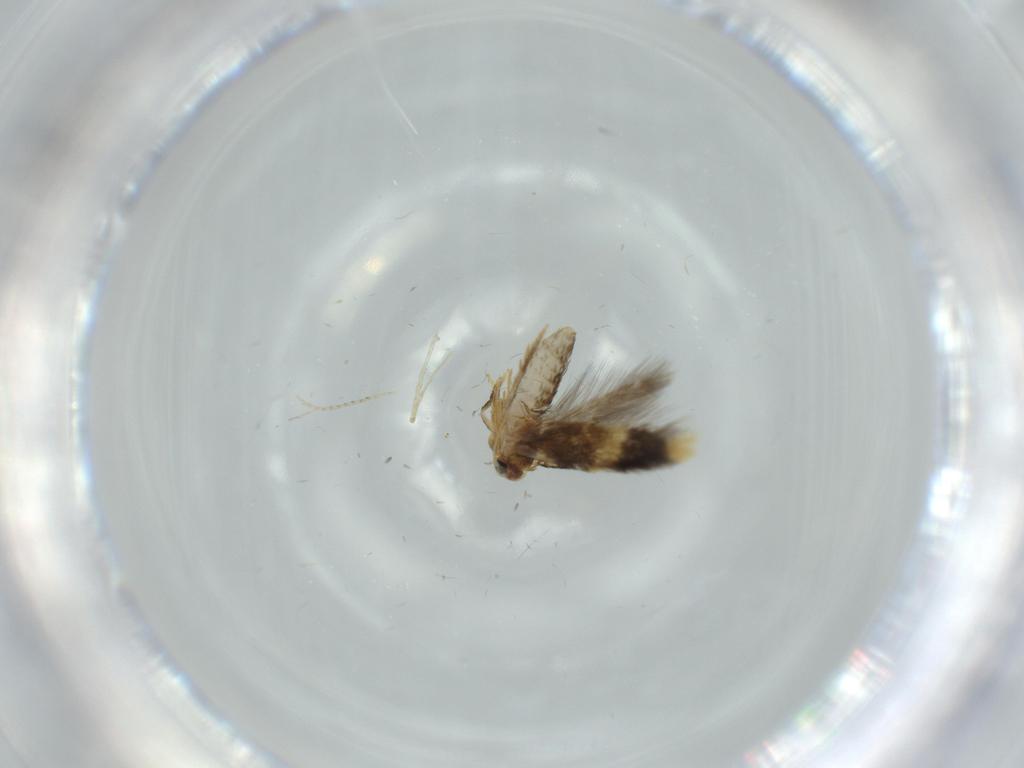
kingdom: Animalia
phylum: Arthropoda
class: Insecta
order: Lepidoptera
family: Copromorphidae
